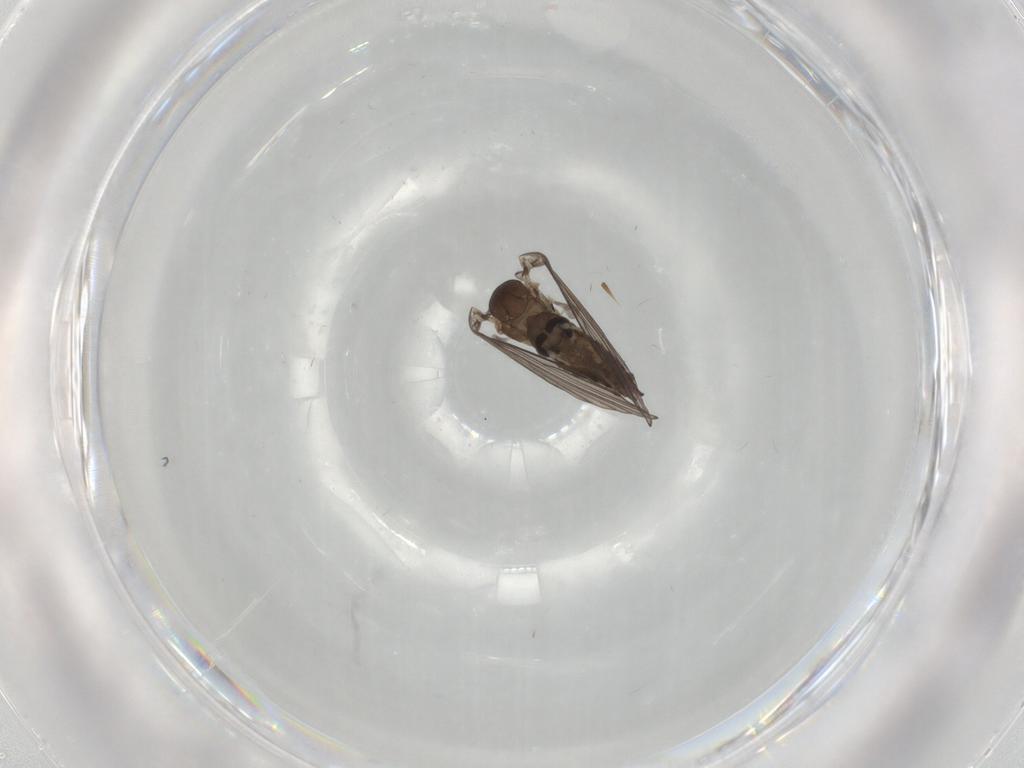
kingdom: Animalia
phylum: Arthropoda
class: Insecta
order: Diptera
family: Psychodidae
